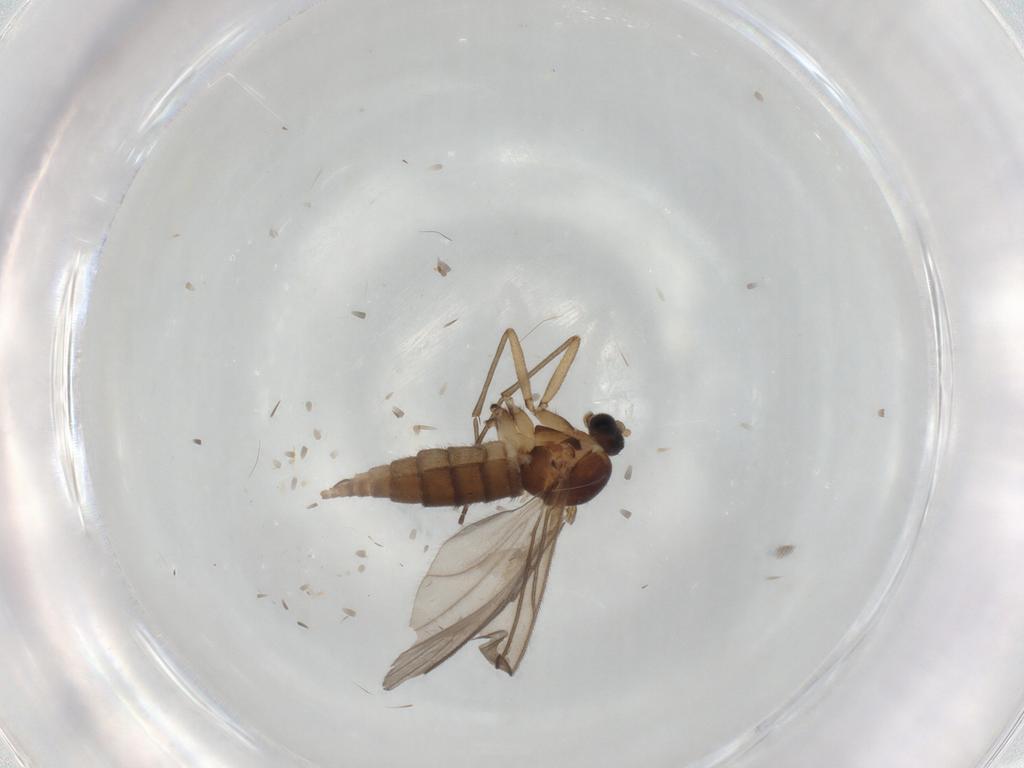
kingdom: Animalia
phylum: Arthropoda
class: Insecta
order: Diptera
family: Sciaridae
